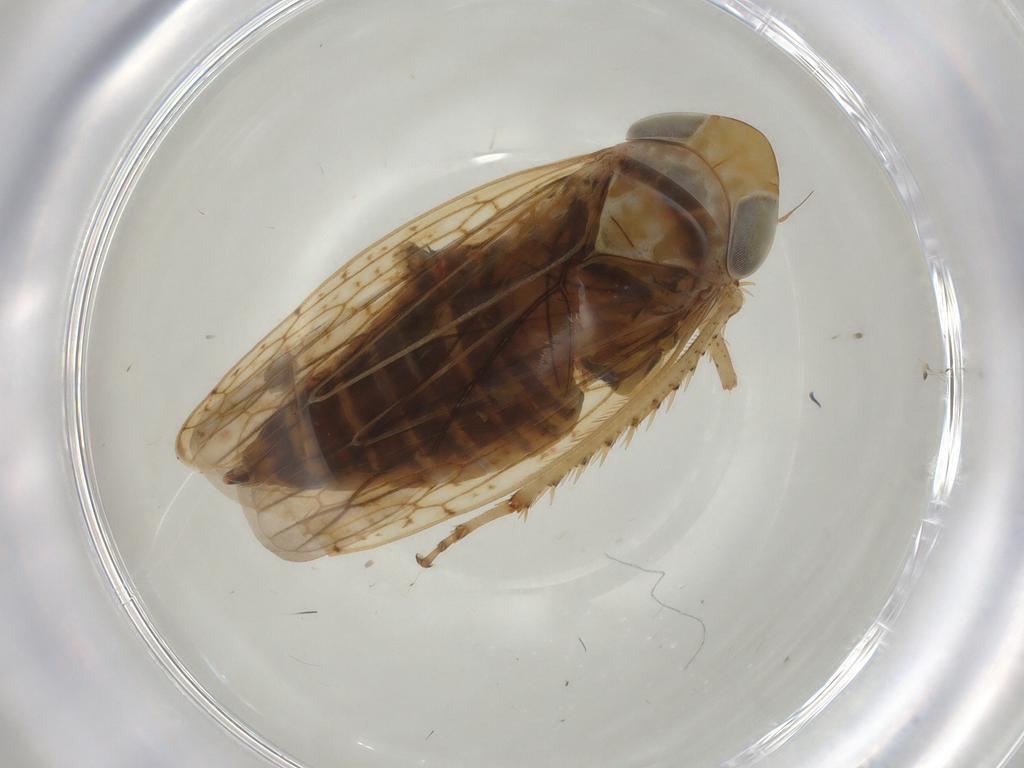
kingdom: Animalia
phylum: Arthropoda
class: Insecta
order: Hemiptera
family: Cicadellidae
